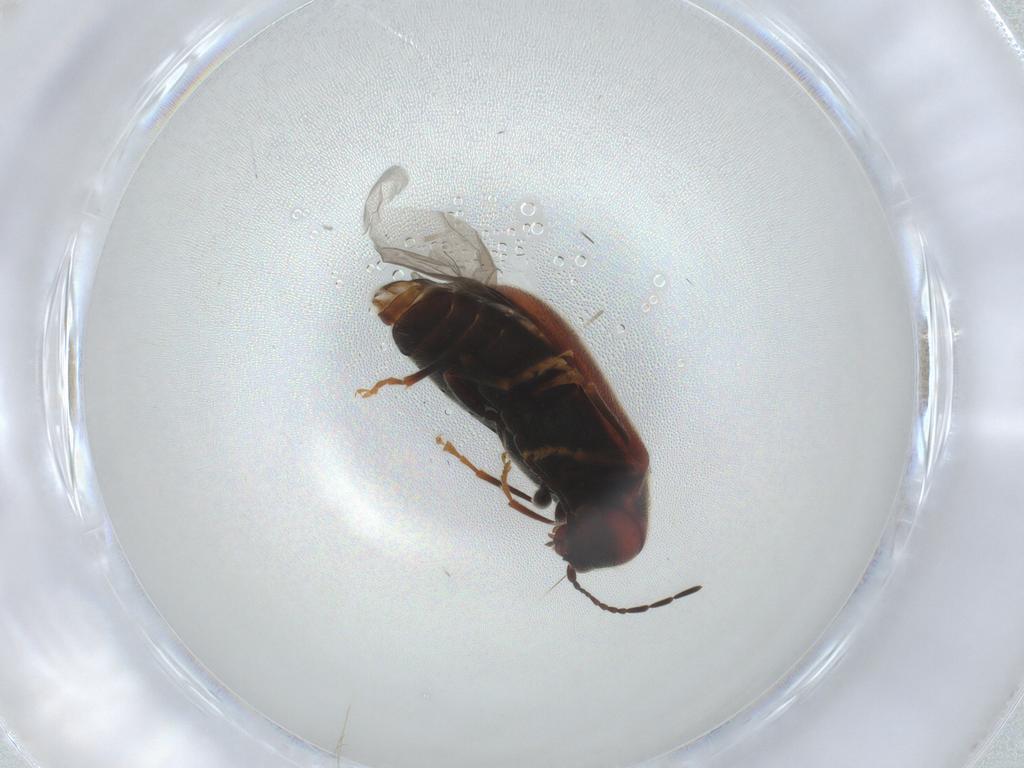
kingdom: Animalia
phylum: Arthropoda
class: Insecta
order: Coleoptera
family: Ptinidae
